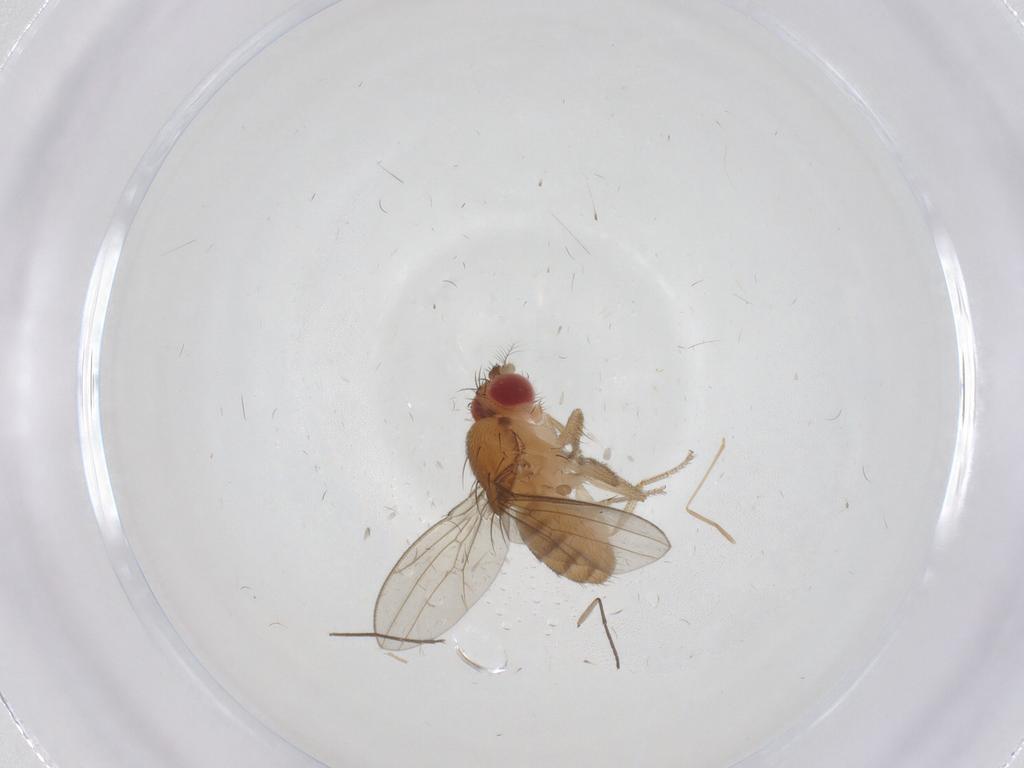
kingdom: Animalia
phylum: Arthropoda
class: Insecta
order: Diptera
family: Drosophilidae
